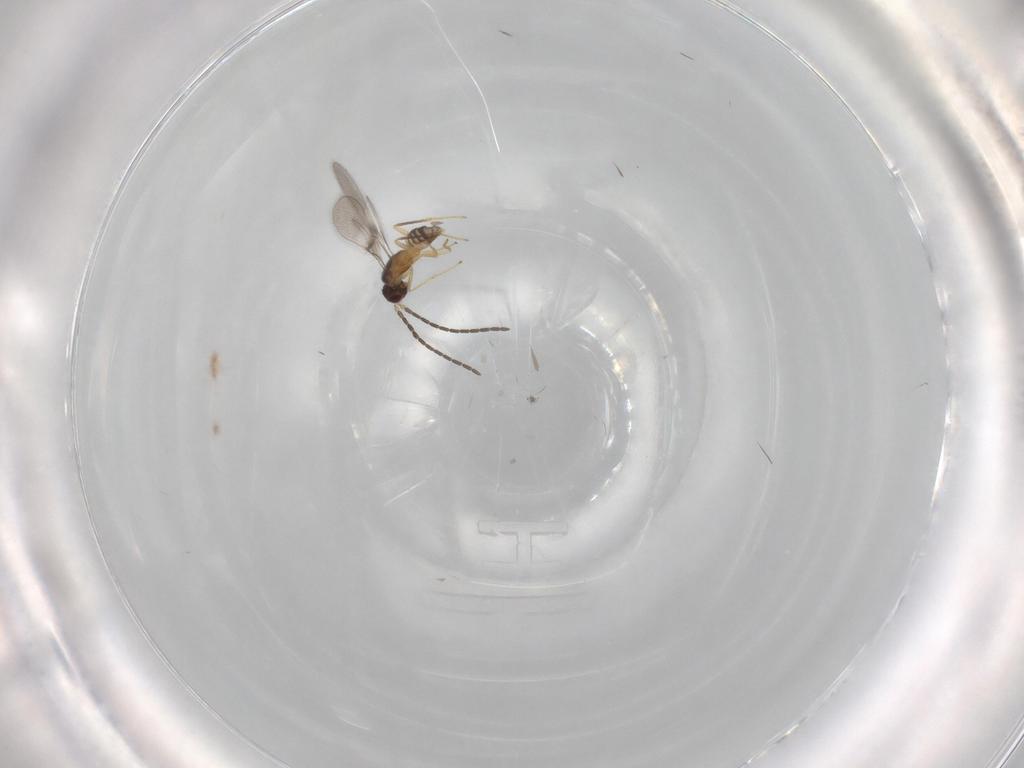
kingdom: Animalia
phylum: Arthropoda
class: Insecta
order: Hymenoptera
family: Mymaridae
